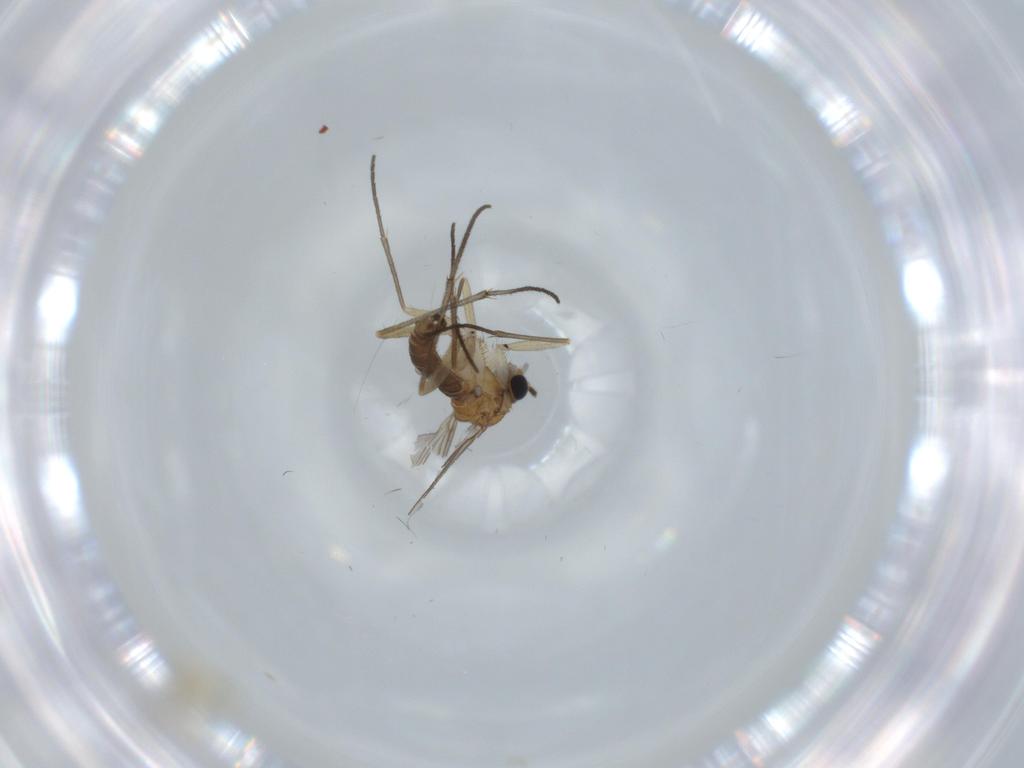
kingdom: Animalia
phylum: Arthropoda
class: Insecta
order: Diptera
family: Sciaridae
